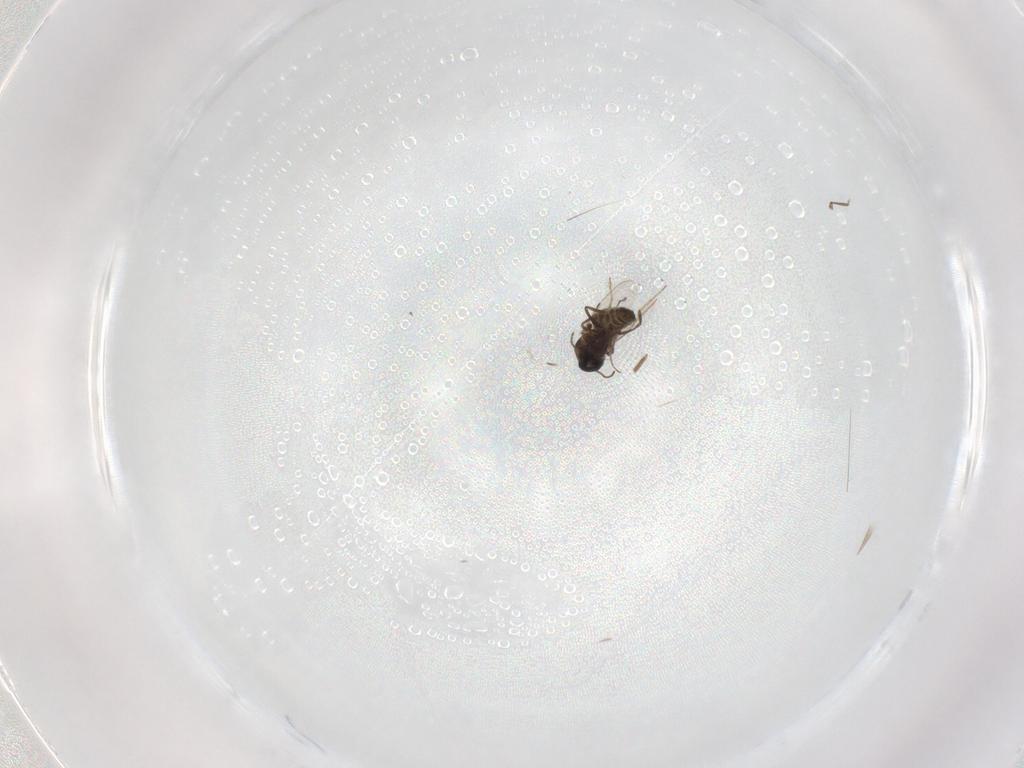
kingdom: Animalia
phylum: Arthropoda
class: Insecta
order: Diptera
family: Ceratopogonidae
